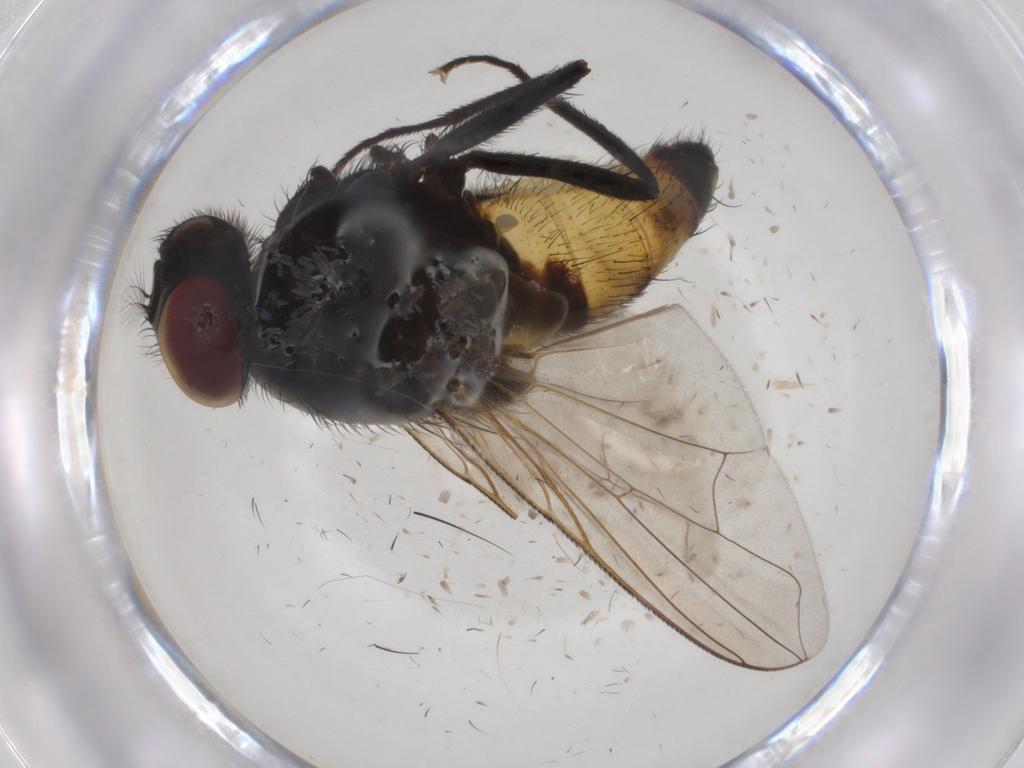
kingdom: Animalia
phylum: Arthropoda
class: Insecta
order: Diptera
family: Muscidae
